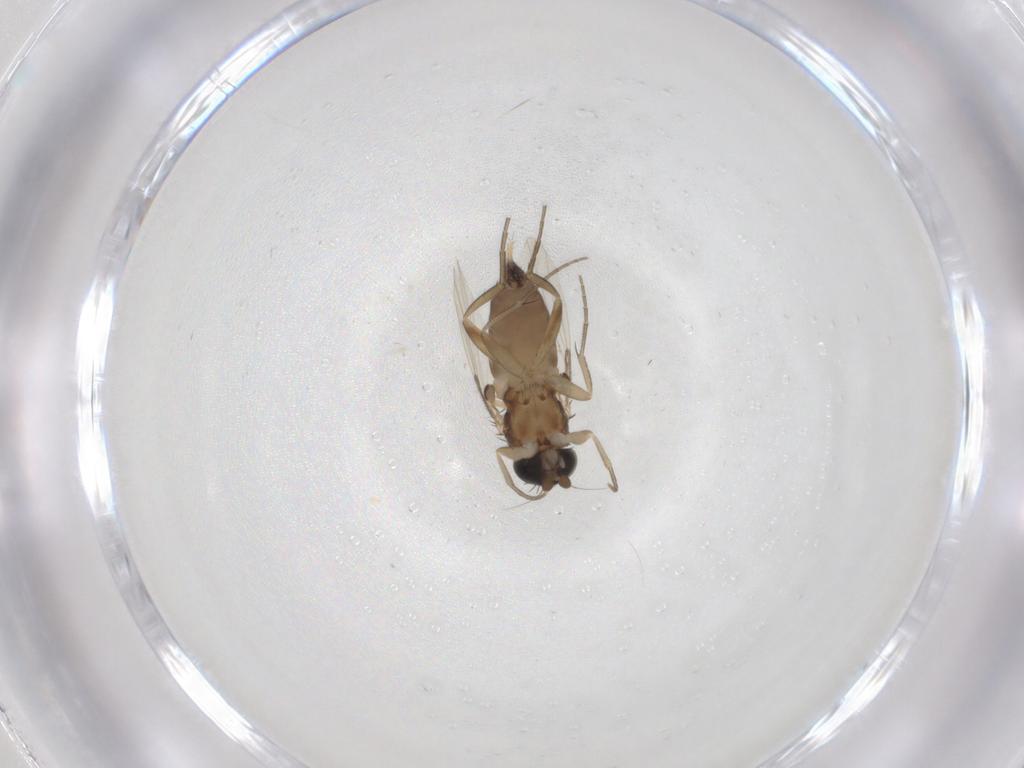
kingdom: Animalia
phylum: Arthropoda
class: Insecta
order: Diptera
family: Phoridae
